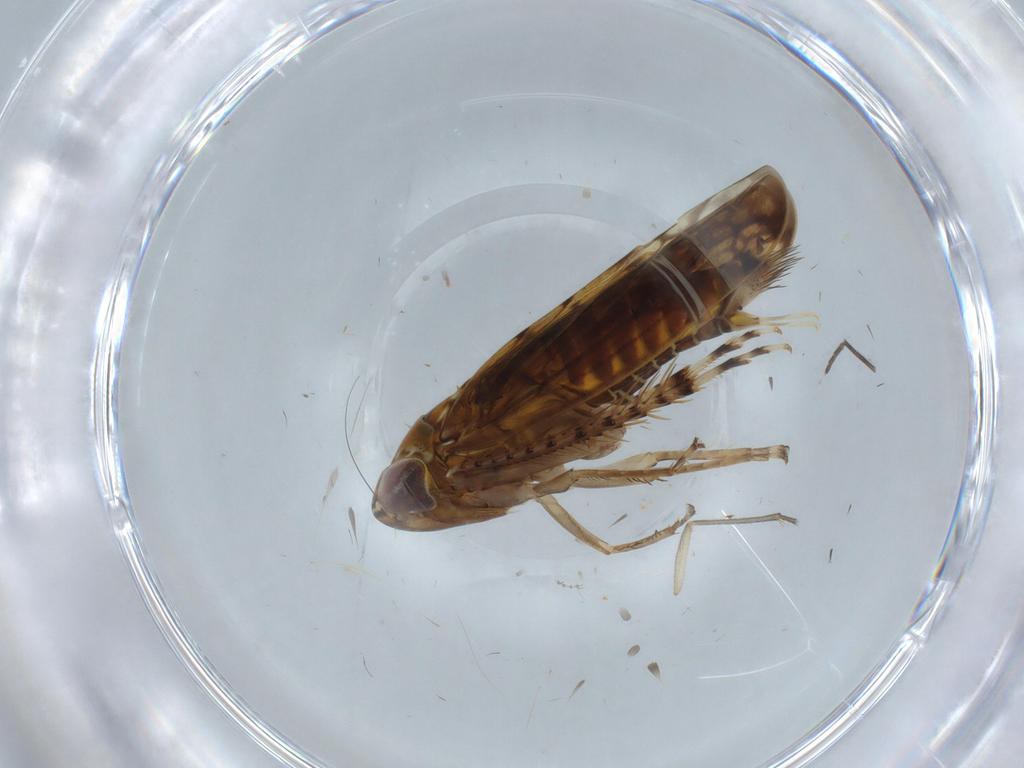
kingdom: Animalia
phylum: Arthropoda
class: Insecta
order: Hemiptera
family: Cicadellidae
